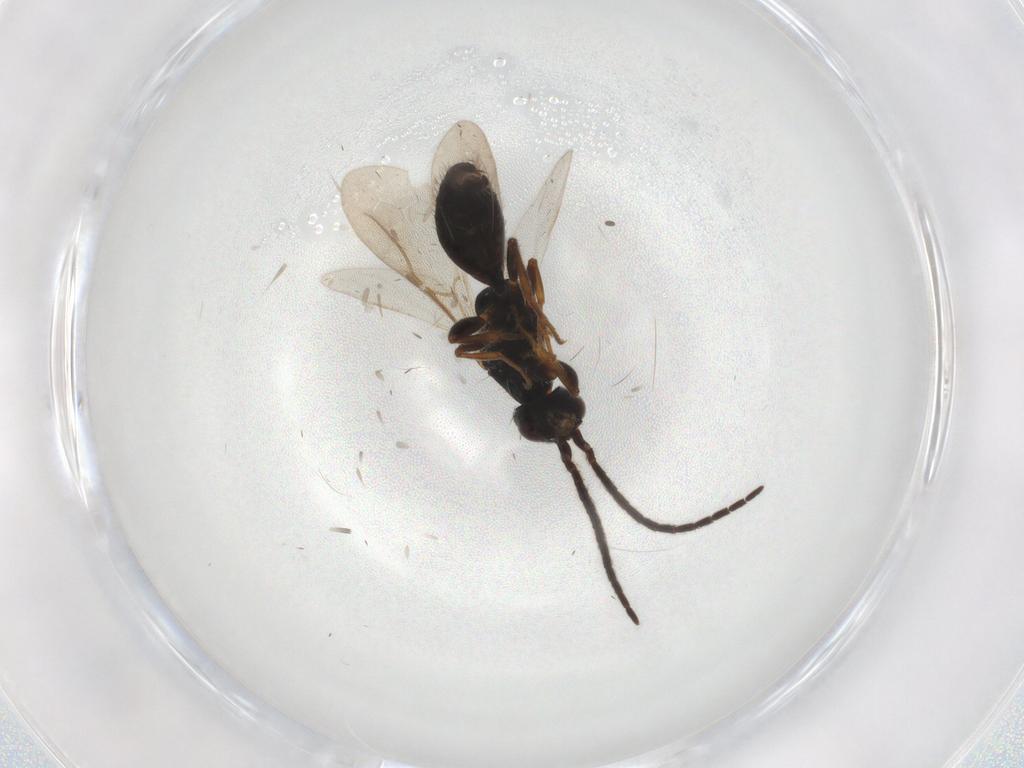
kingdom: Animalia
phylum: Arthropoda
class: Insecta
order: Hymenoptera
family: Bethylidae
